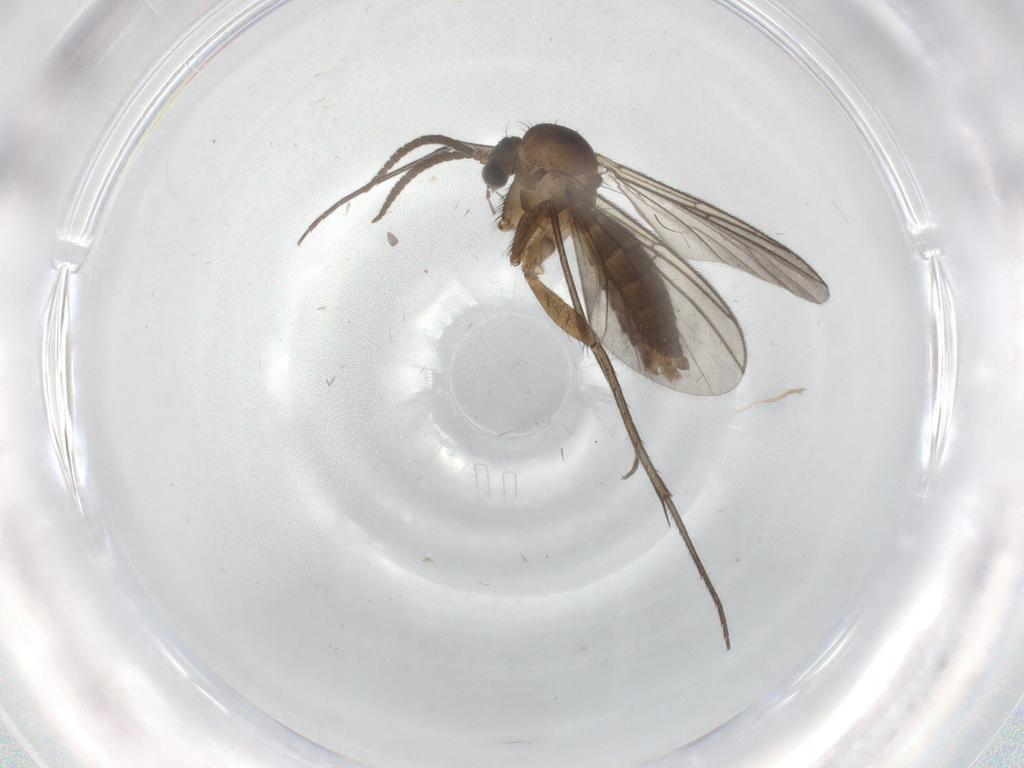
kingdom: Animalia
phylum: Arthropoda
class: Insecta
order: Diptera
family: Mycetophilidae
